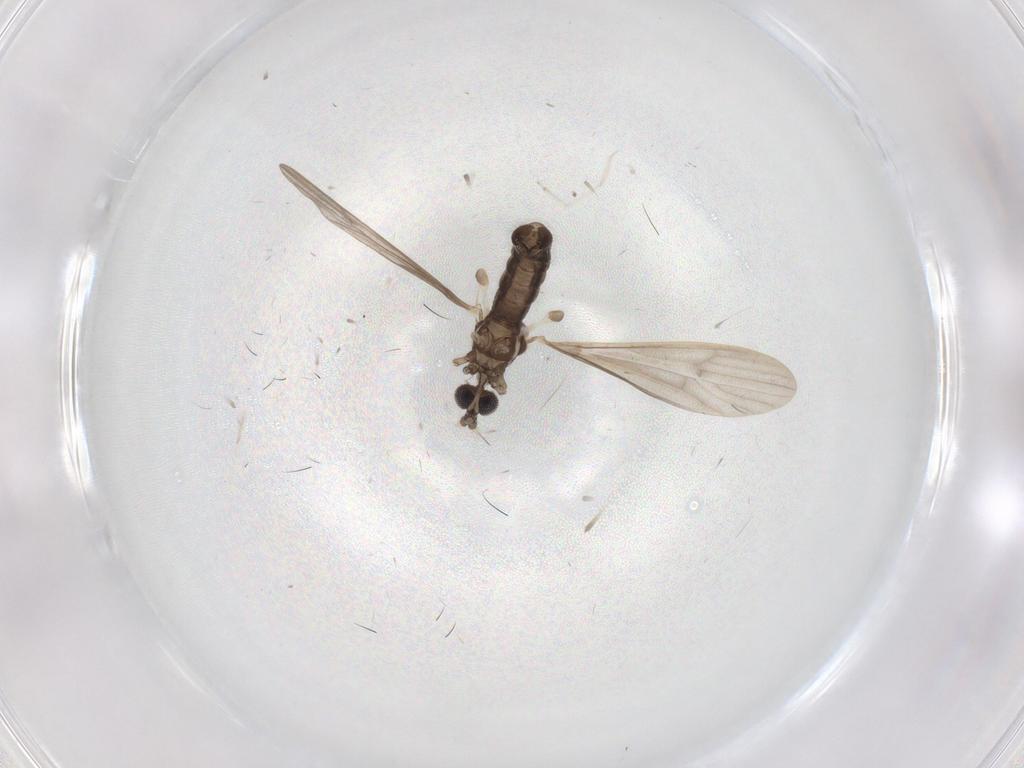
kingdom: Animalia
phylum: Arthropoda
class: Insecta
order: Diptera
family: Limoniidae
